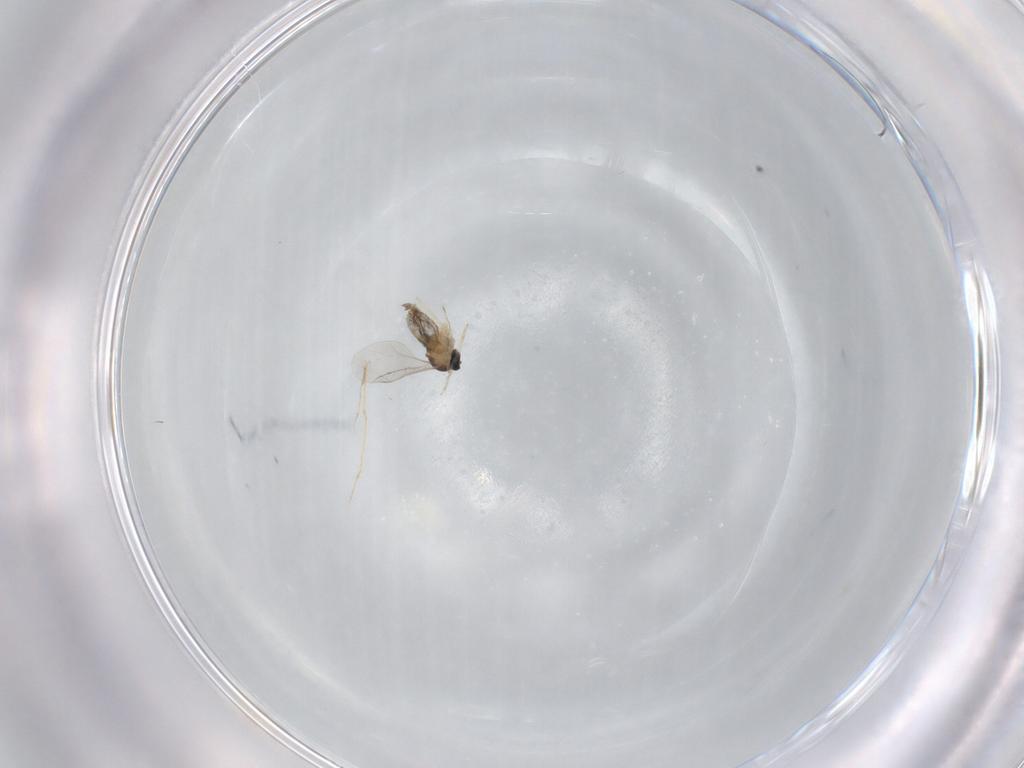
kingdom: Animalia
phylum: Arthropoda
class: Insecta
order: Diptera
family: Cecidomyiidae
